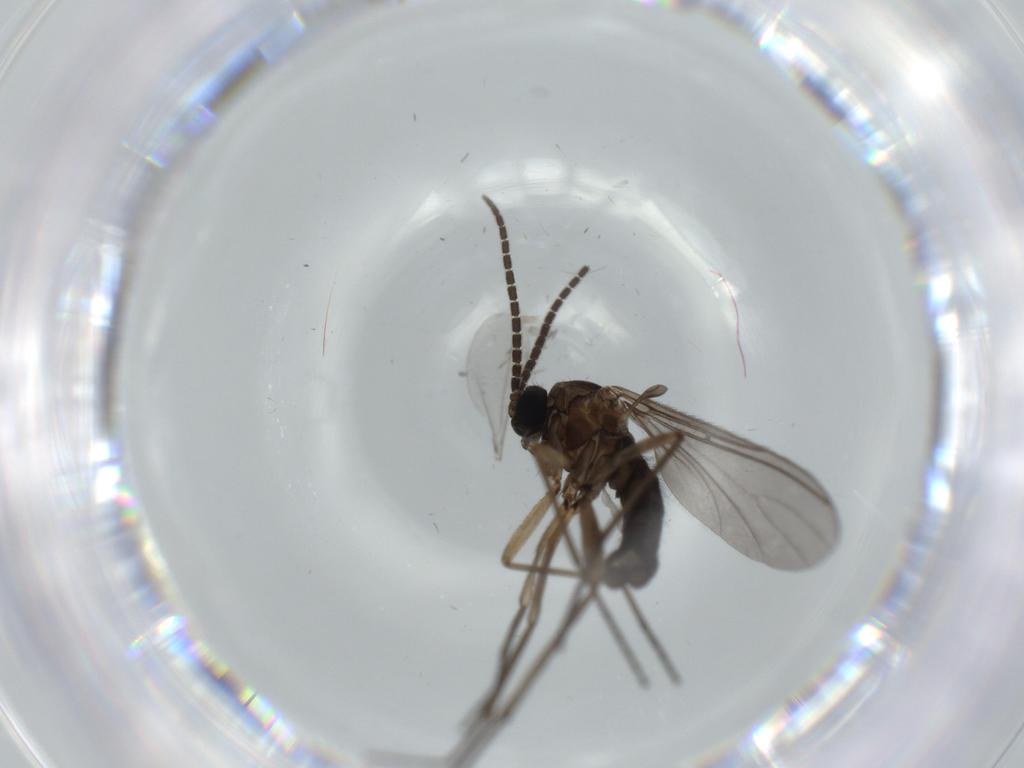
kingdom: Animalia
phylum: Arthropoda
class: Insecta
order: Diptera
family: Sciaridae
